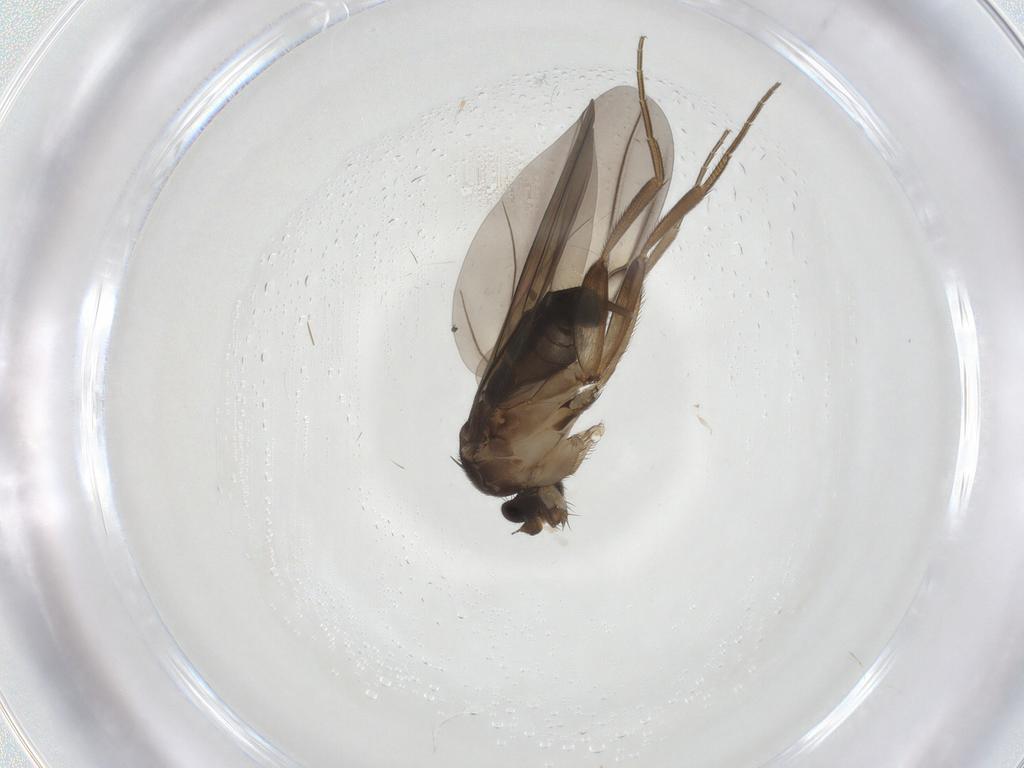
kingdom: Animalia
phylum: Arthropoda
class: Insecta
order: Diptera
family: Phoridae
